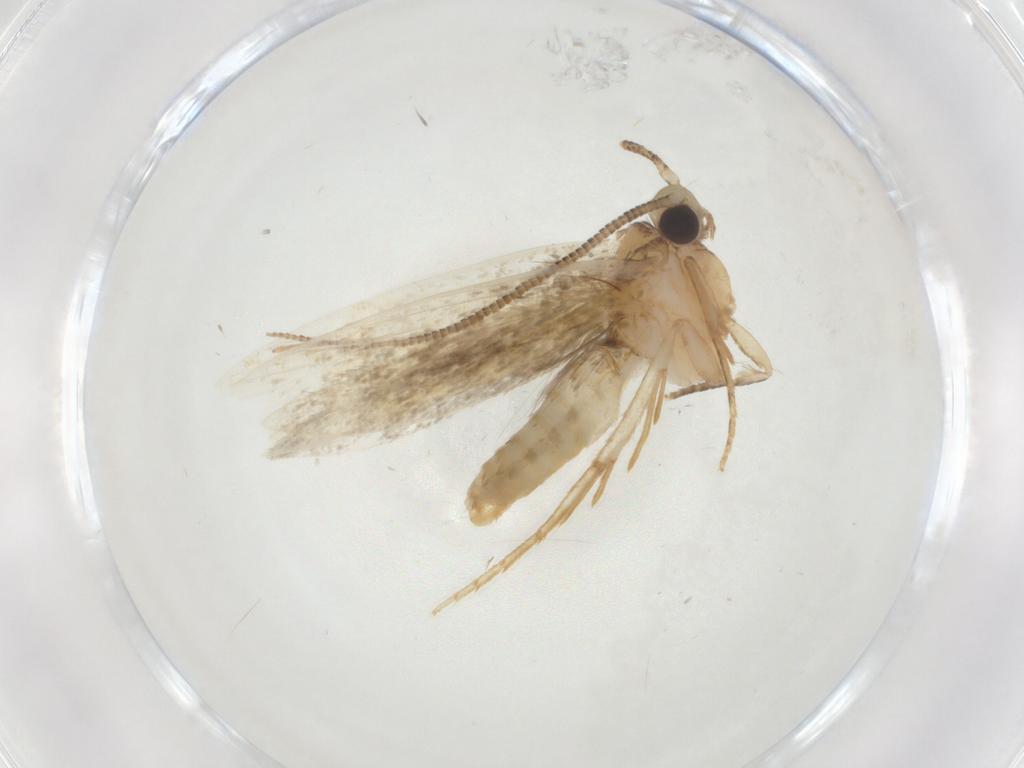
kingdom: Animalia
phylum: Arthropoda
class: Insecta
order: Lepidoptera
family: Tineidae
